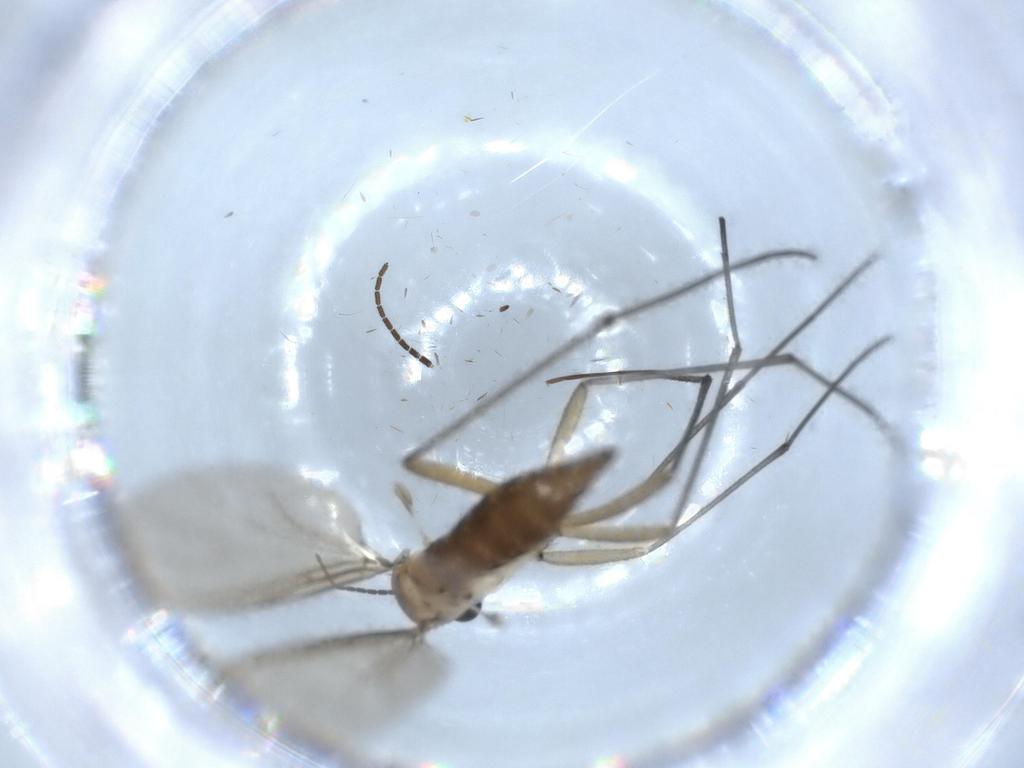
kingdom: Animalia
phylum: Arthropoda
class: Insecta
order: Diptera
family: Sciaridae
